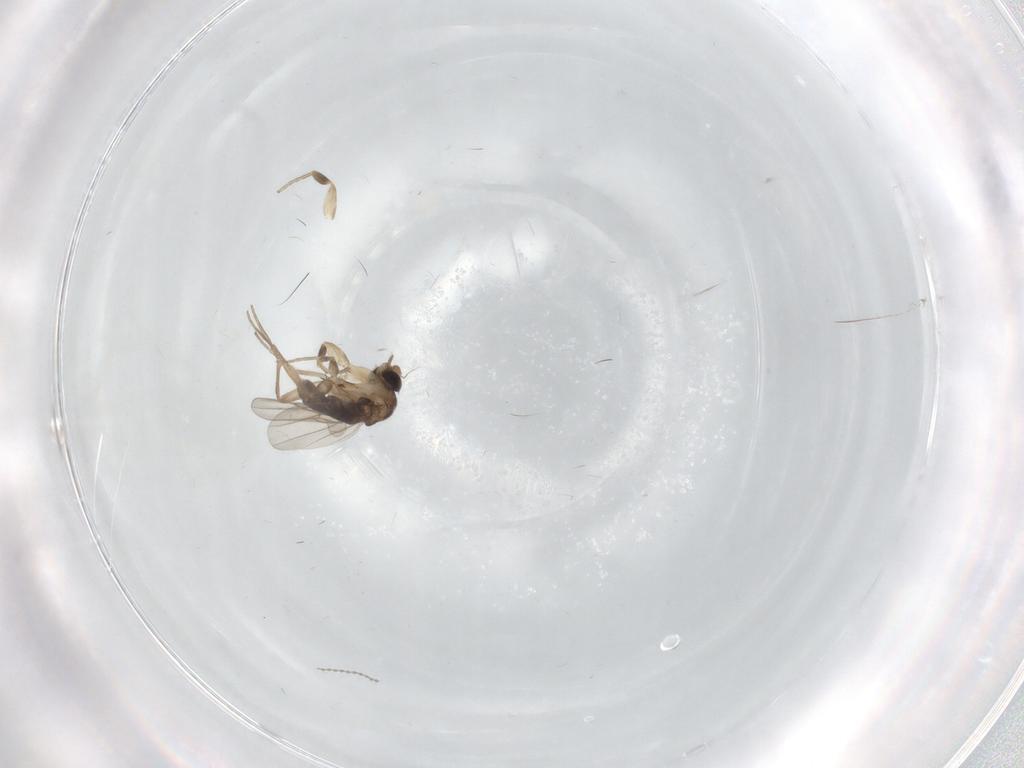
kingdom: Animalia
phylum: Arthropoda
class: Insecta
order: Diptera
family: Phoridae
